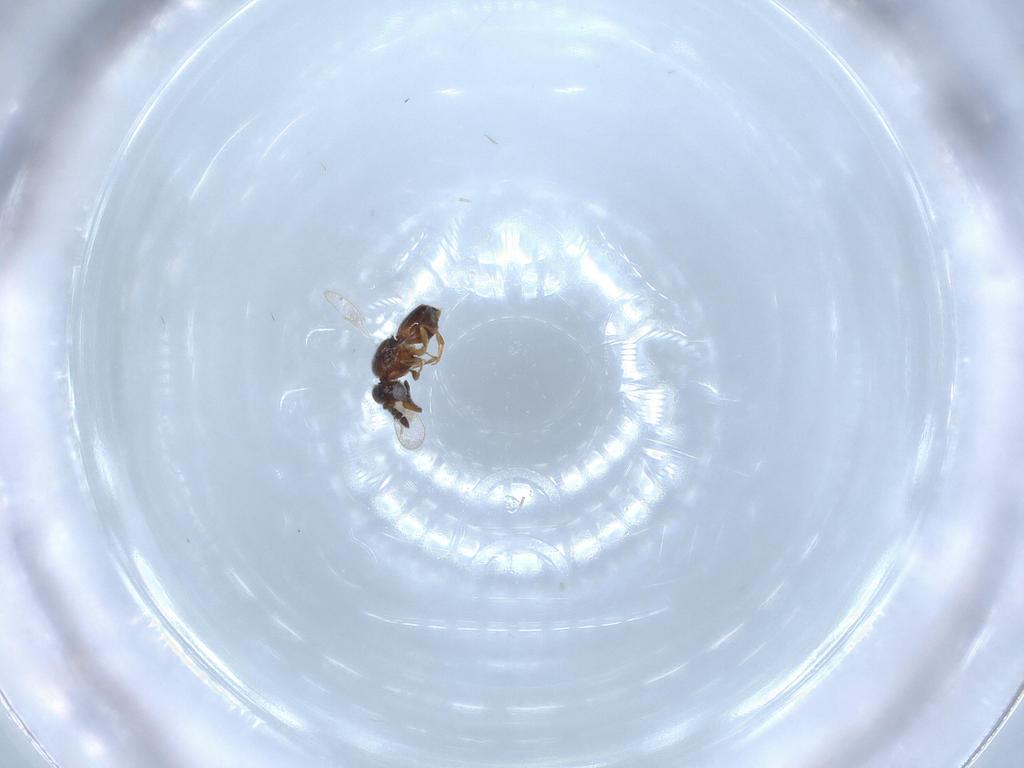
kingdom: Animalia
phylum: Arthropoda
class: Insecta
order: Hymenoptera
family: Ceraphronidae
